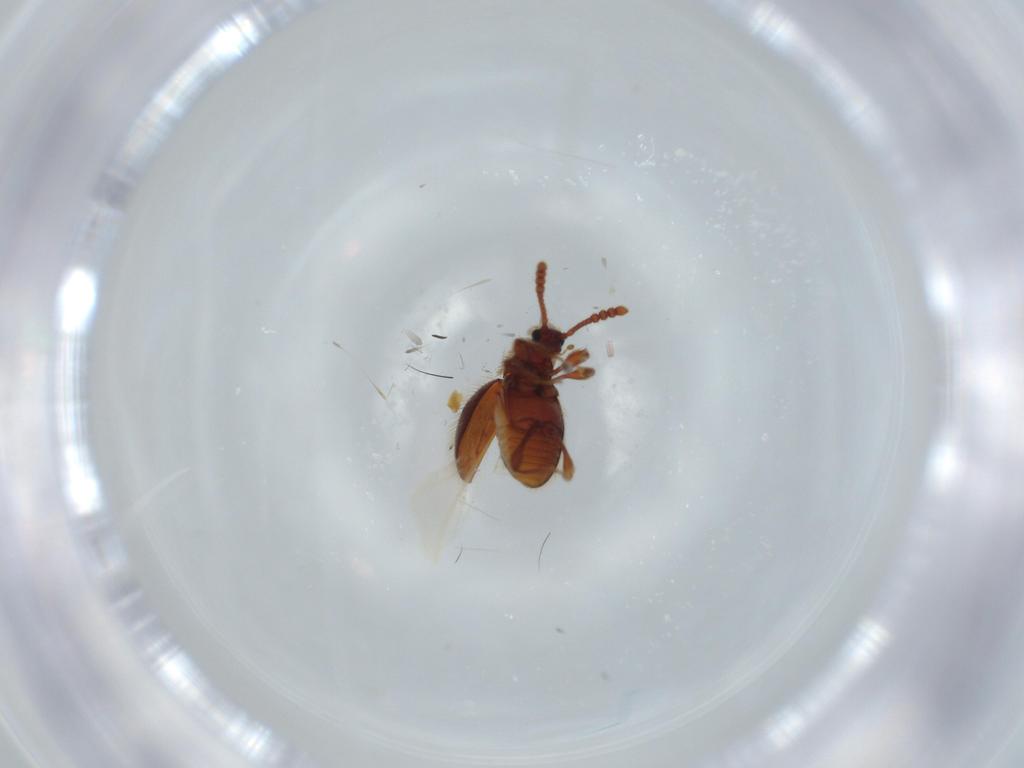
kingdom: Animalia
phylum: Arthropoda
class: Insecta
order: Coleoptera
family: Staphylinidae
